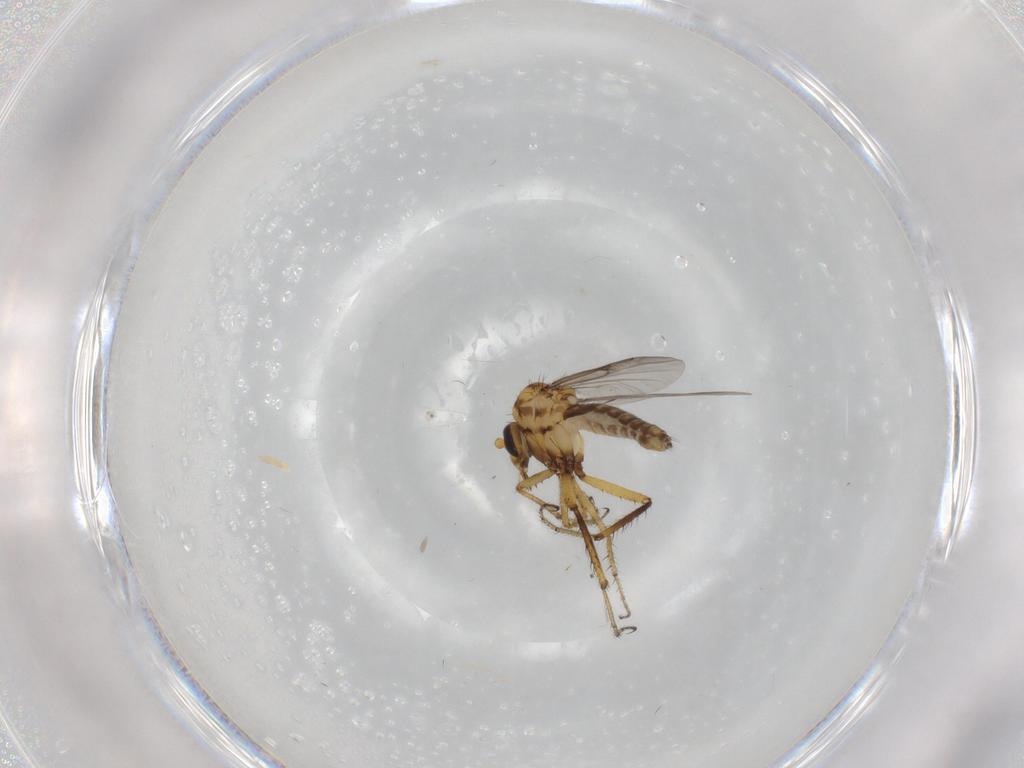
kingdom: Animalia
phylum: Arthropoda
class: Insecta
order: Diptera
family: Ceratopogonidae
